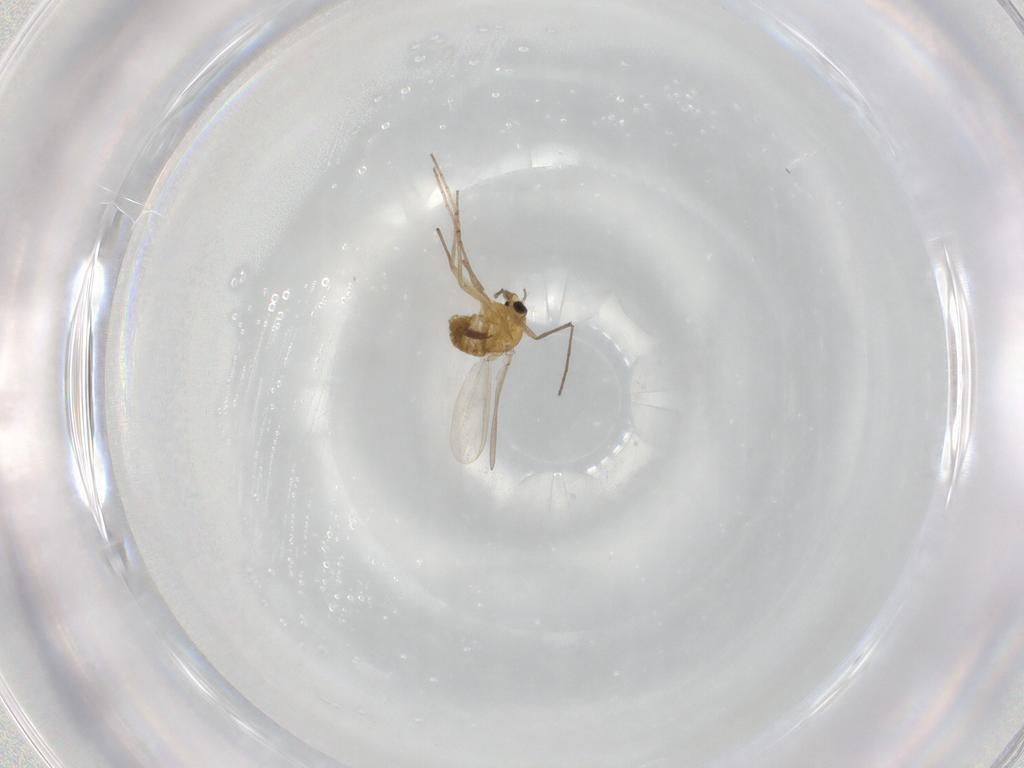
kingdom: Animalia
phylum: Arthropoda
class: Insecta
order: Diptera
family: Chironomidae
